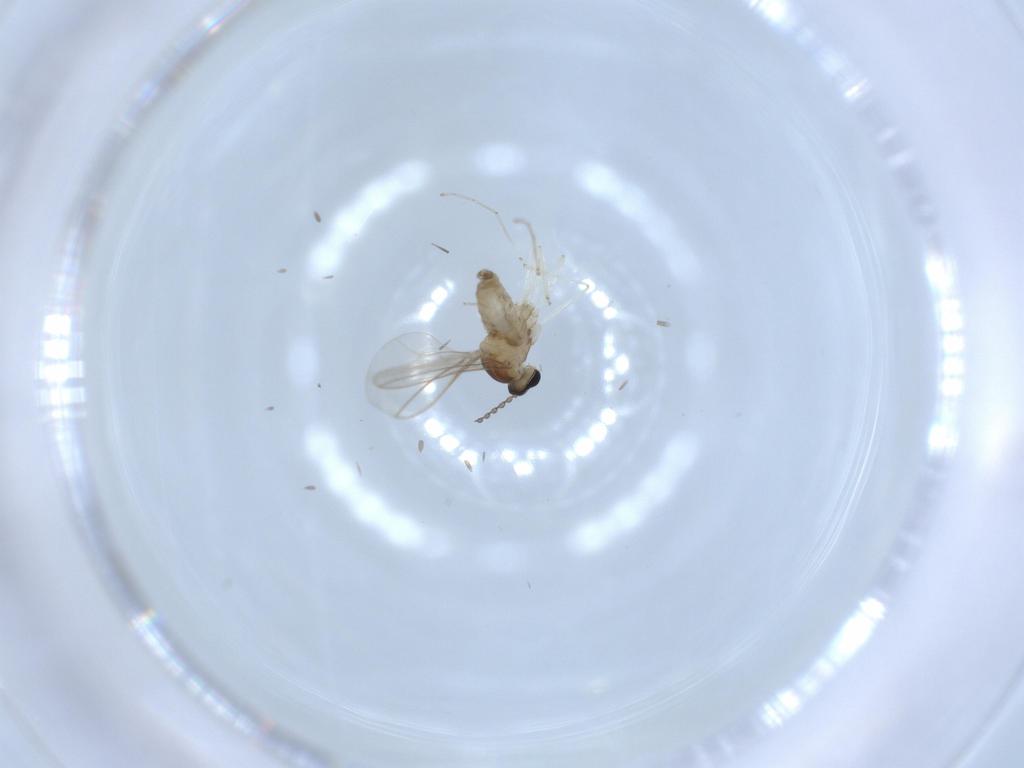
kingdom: Animalia
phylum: Arthropoda
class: Insecta
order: Diptera
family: Cecidomyiidae
